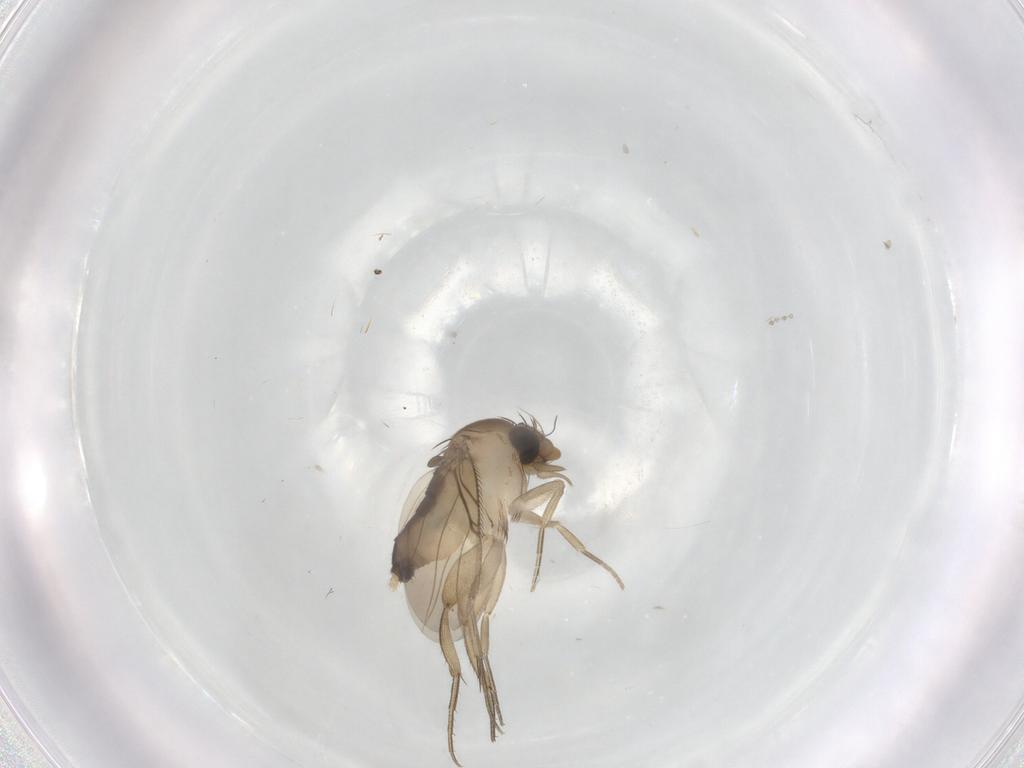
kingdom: Animalia
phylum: Arthropoda
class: Insecta
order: Diptera
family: Phoridae
